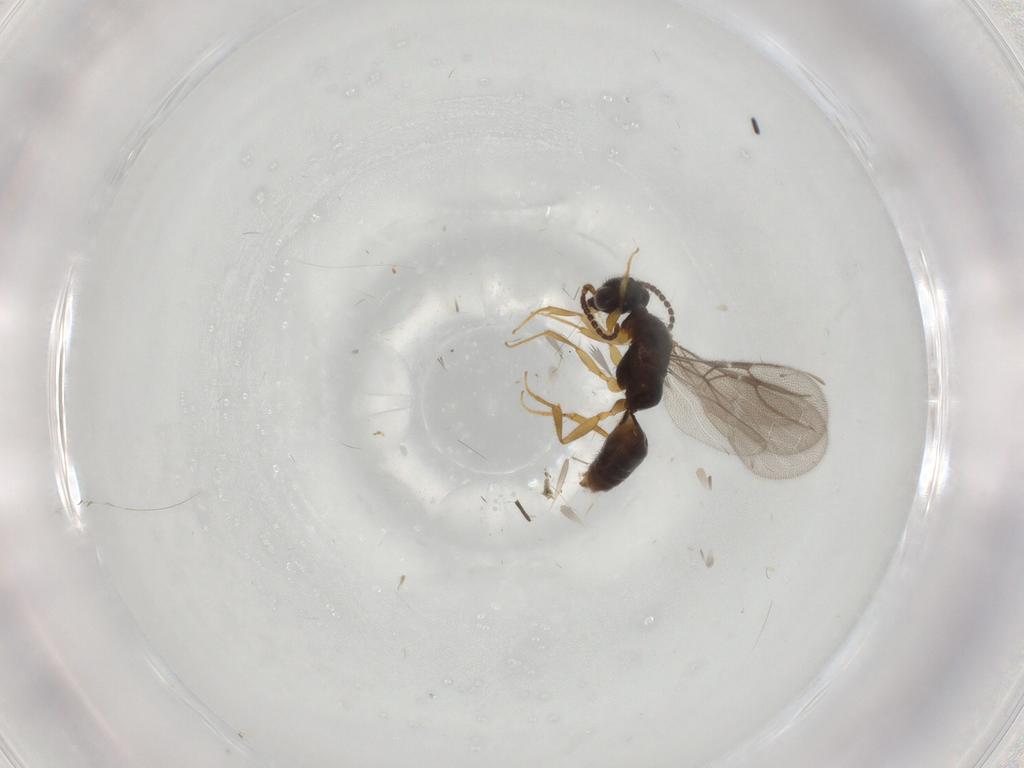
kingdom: Animalia
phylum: Arthropoda
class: Insecta
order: Hymenoptera
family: Bethylidae
